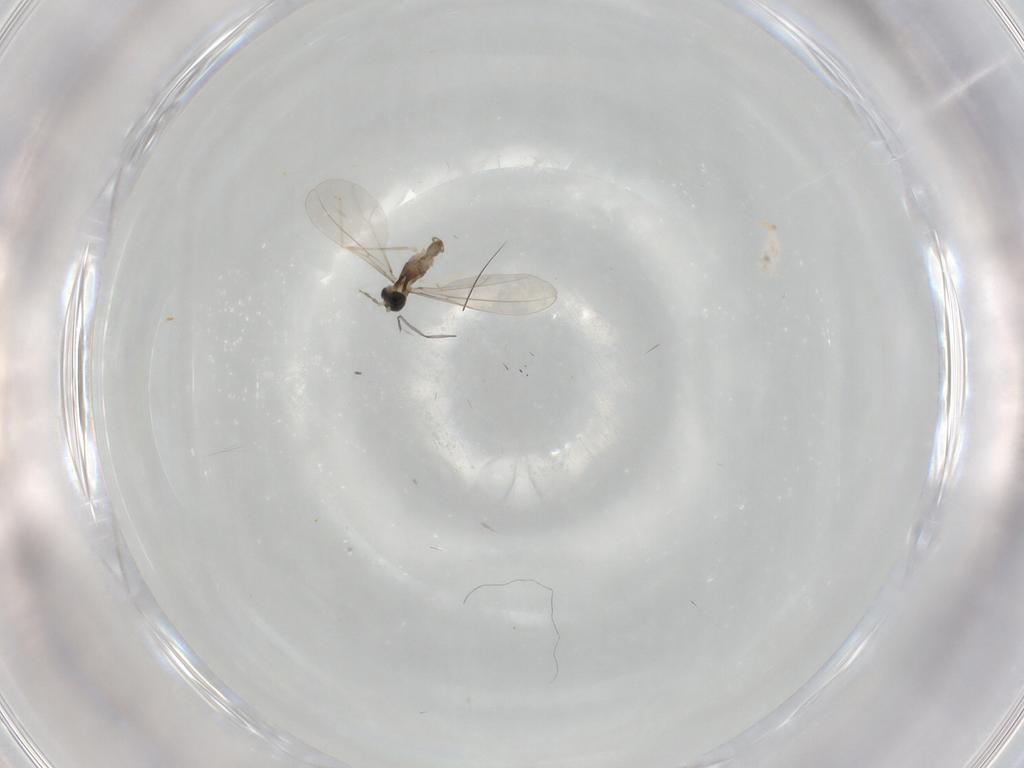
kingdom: Animalia
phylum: Arthropoda
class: Insecta
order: Diptera
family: Cecidomyiidae
